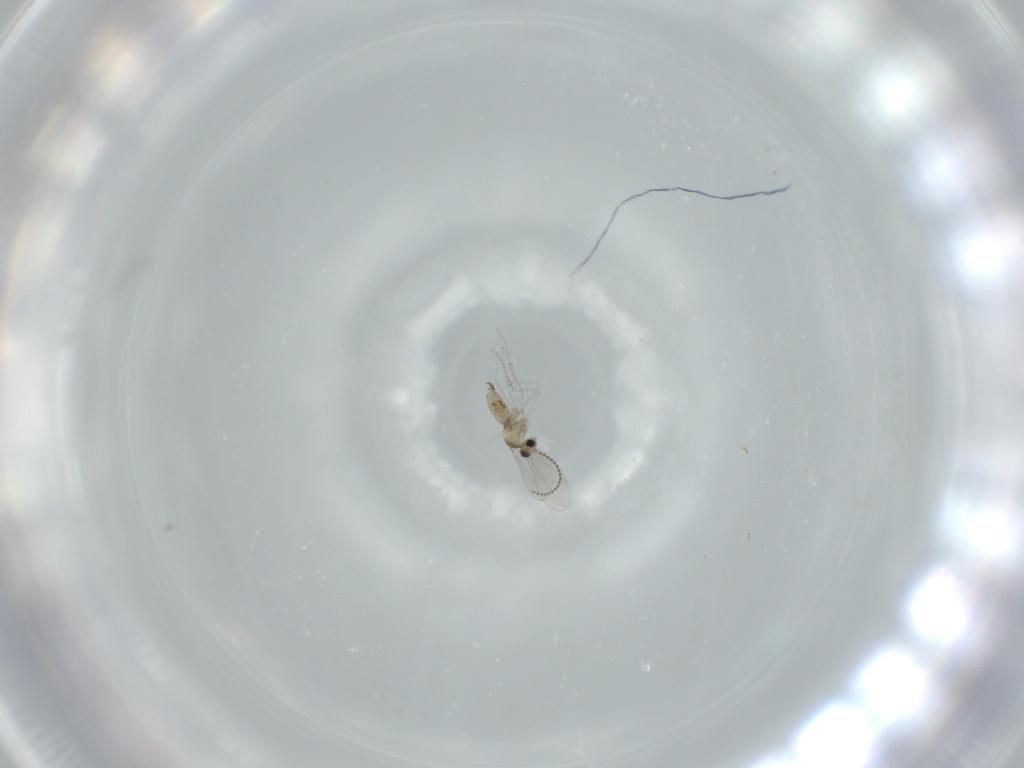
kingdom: Animalia
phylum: Arthropoda
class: Insecta
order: Diptera
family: Cecidomyiidae
